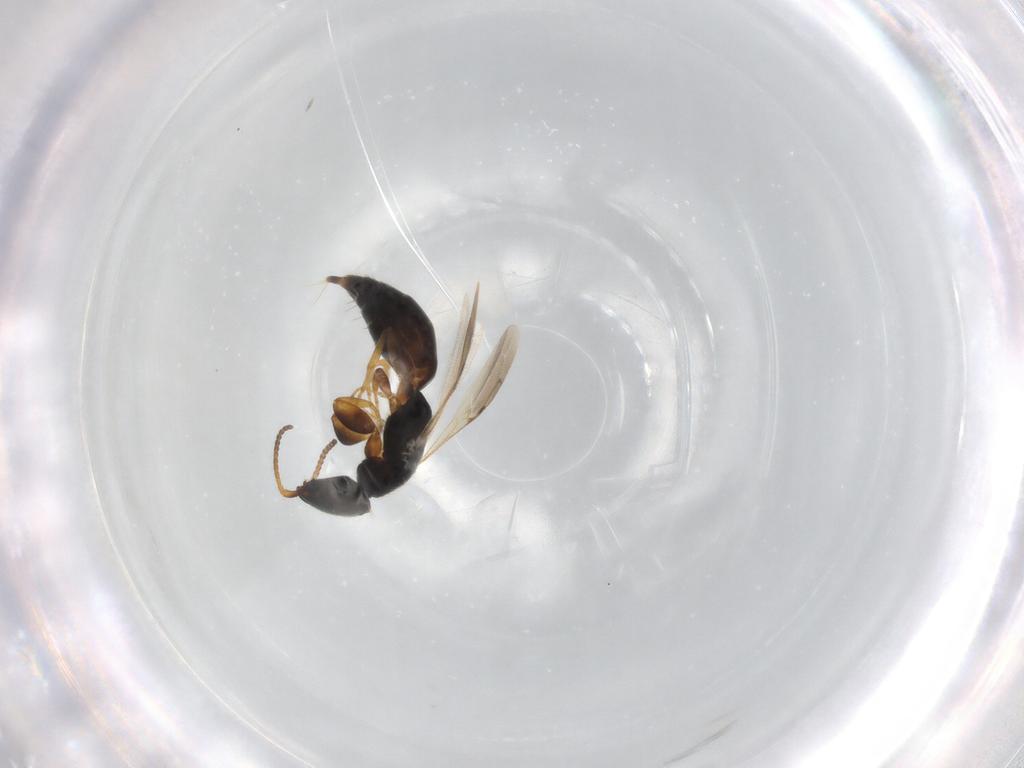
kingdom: Animalia
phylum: Arthropoda
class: Insecta
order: Hymenoptera
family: Bethylidae
